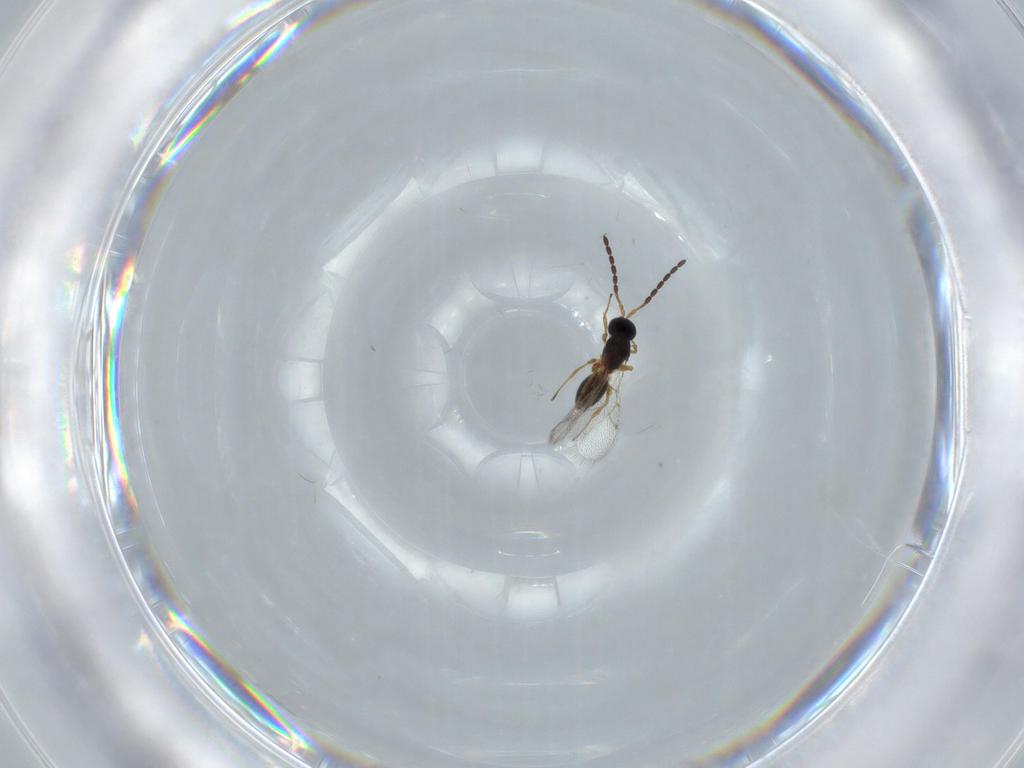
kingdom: Animalia
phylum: Arthropoda
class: Insecta
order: Hymenoptera
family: Figitidae
